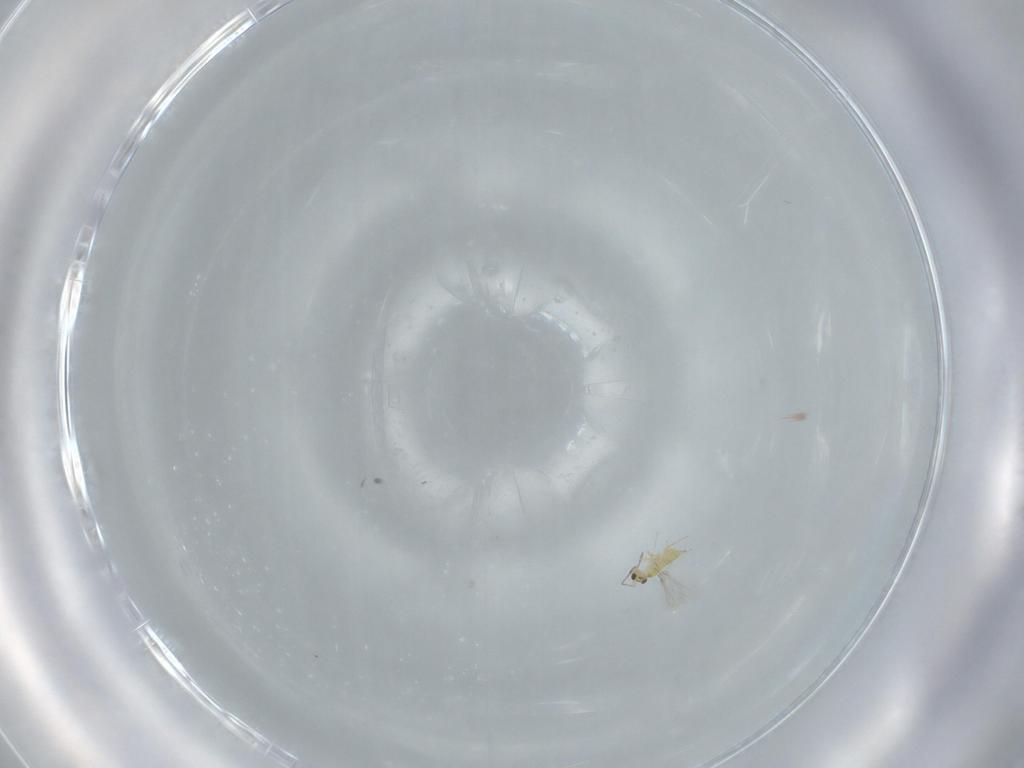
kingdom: Animalia
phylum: Arthropoda
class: Insecta
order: Hymenoptera
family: Mymaridae
